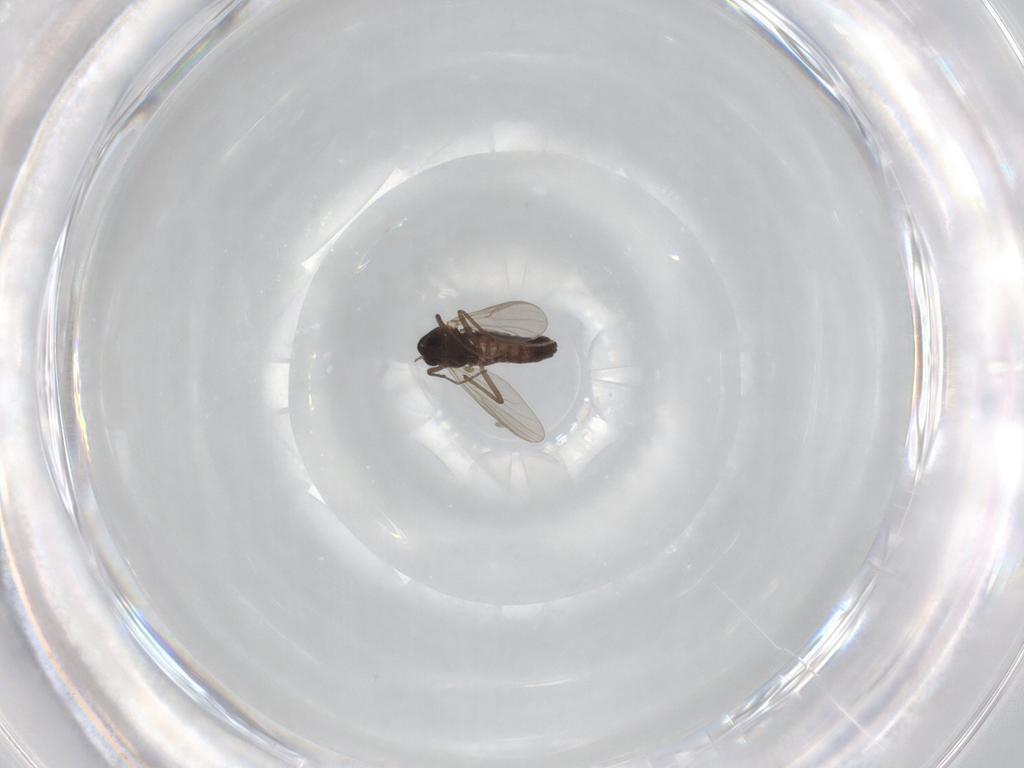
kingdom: Animalia
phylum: Arthropoda
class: Insecta
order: Diptera
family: Chironomidae
